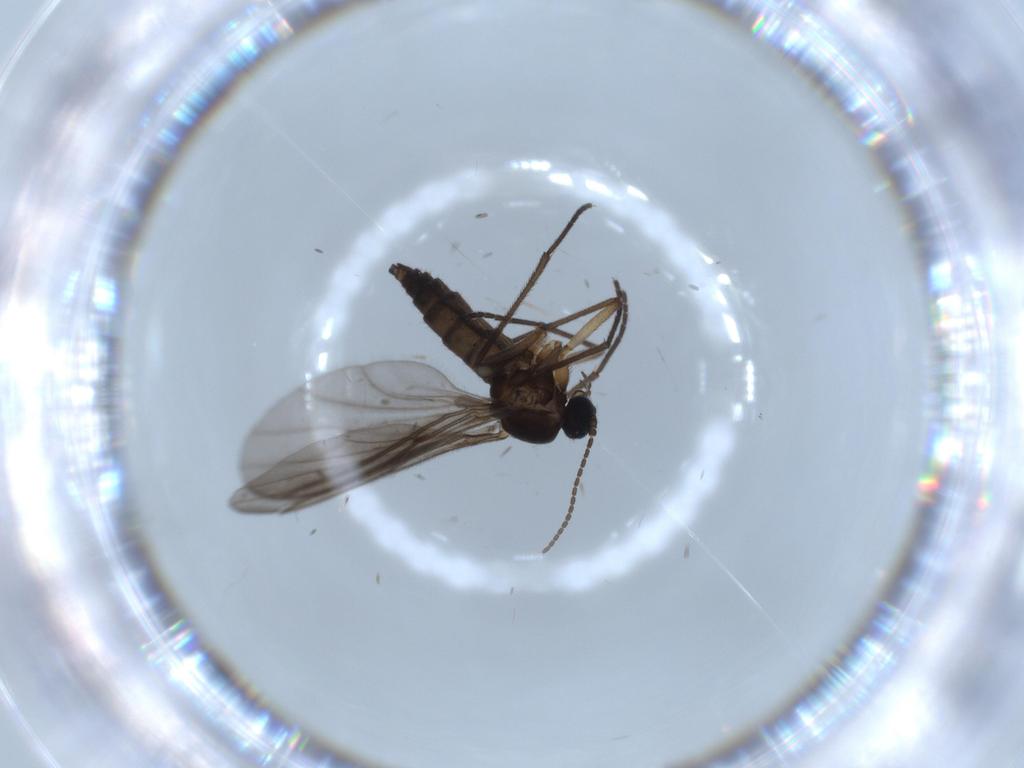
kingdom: Animalia
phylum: Arthropoda
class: Insecta
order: Diptera
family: Sciaridae
